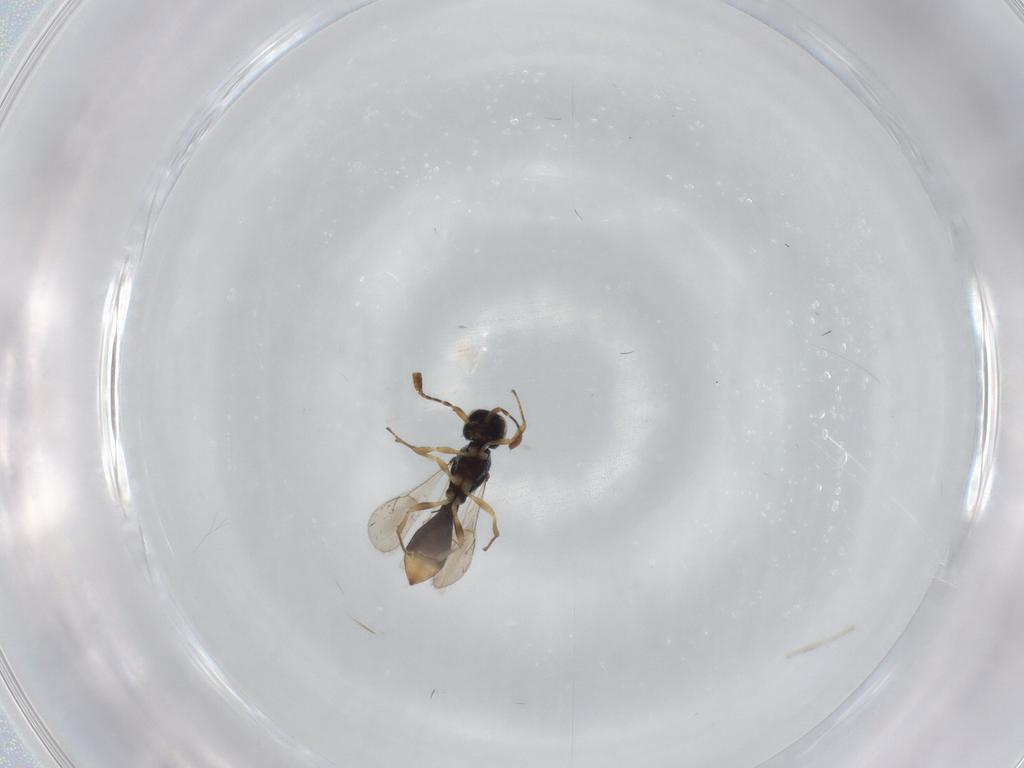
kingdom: Animalia
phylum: Arthropoda
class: Insecta
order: Hymenoptera
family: Scelionidae
